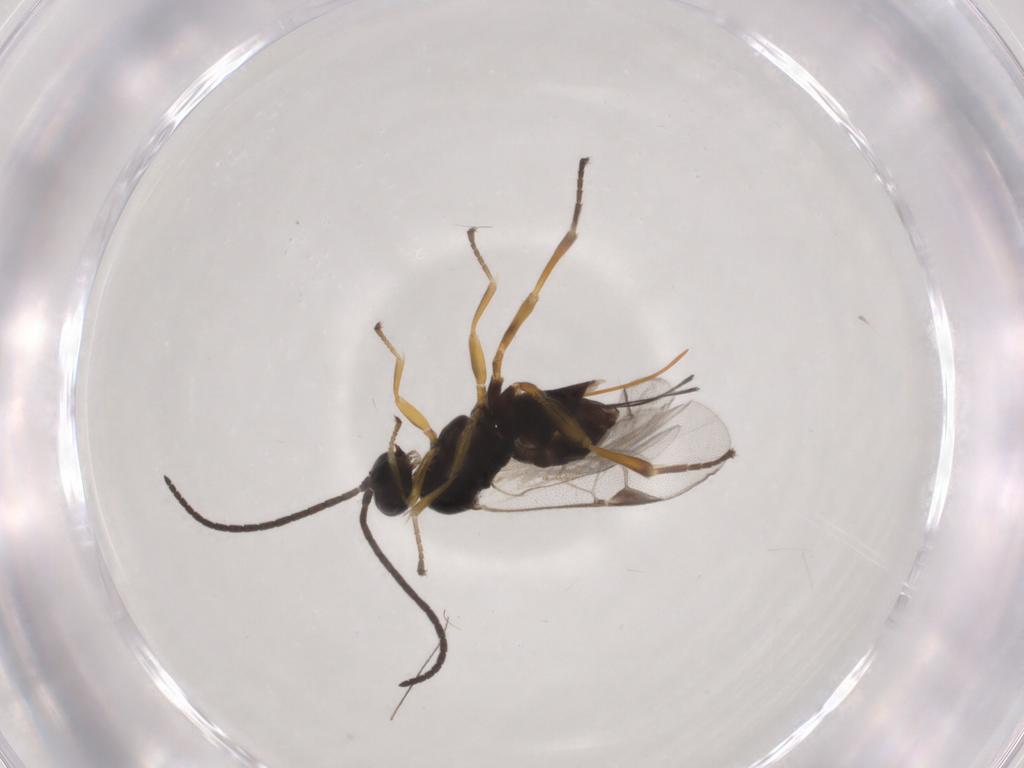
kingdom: Animalia
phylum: Arthropoda
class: Insecta
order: Hymenoptera
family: Braconidae
